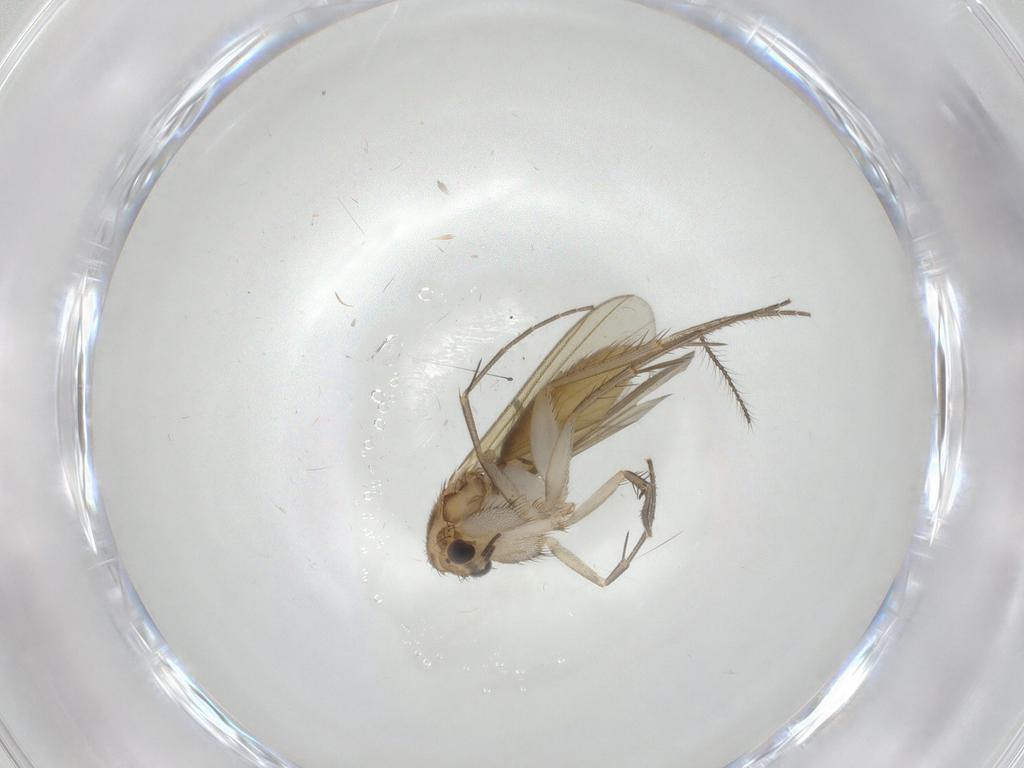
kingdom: Animalia
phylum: Arthropoda
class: Insecta
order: Diptera
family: Mycetophilidae
